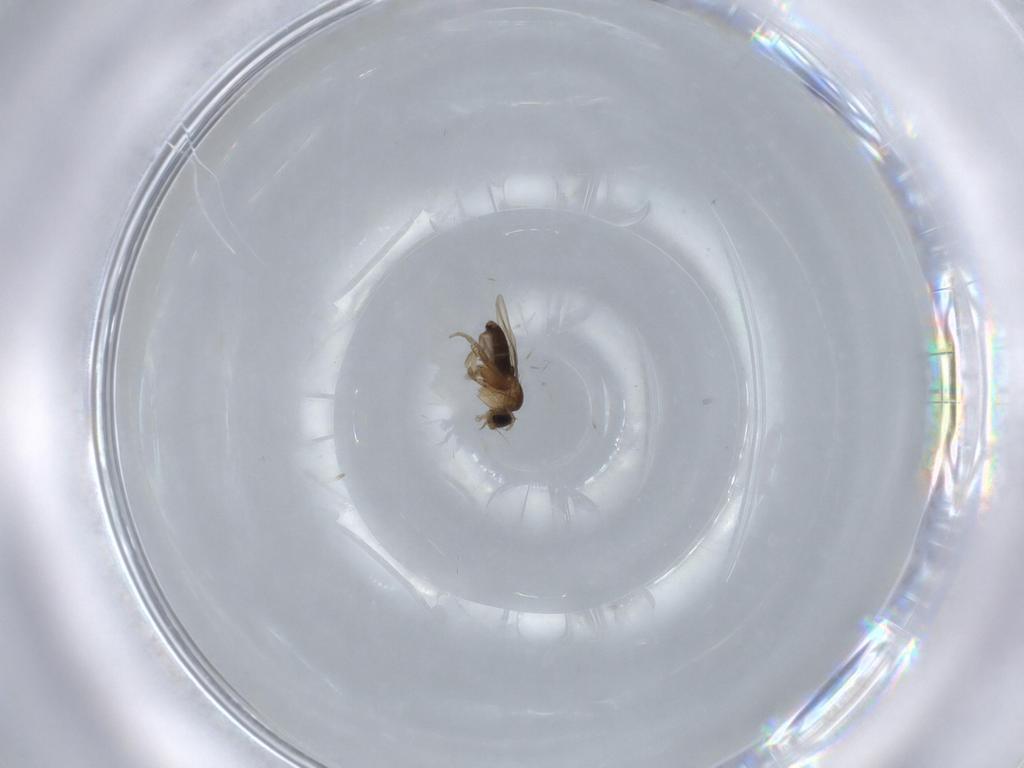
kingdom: Animalia
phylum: Arthropoda
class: Insecta
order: Diptera
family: Phoridae
